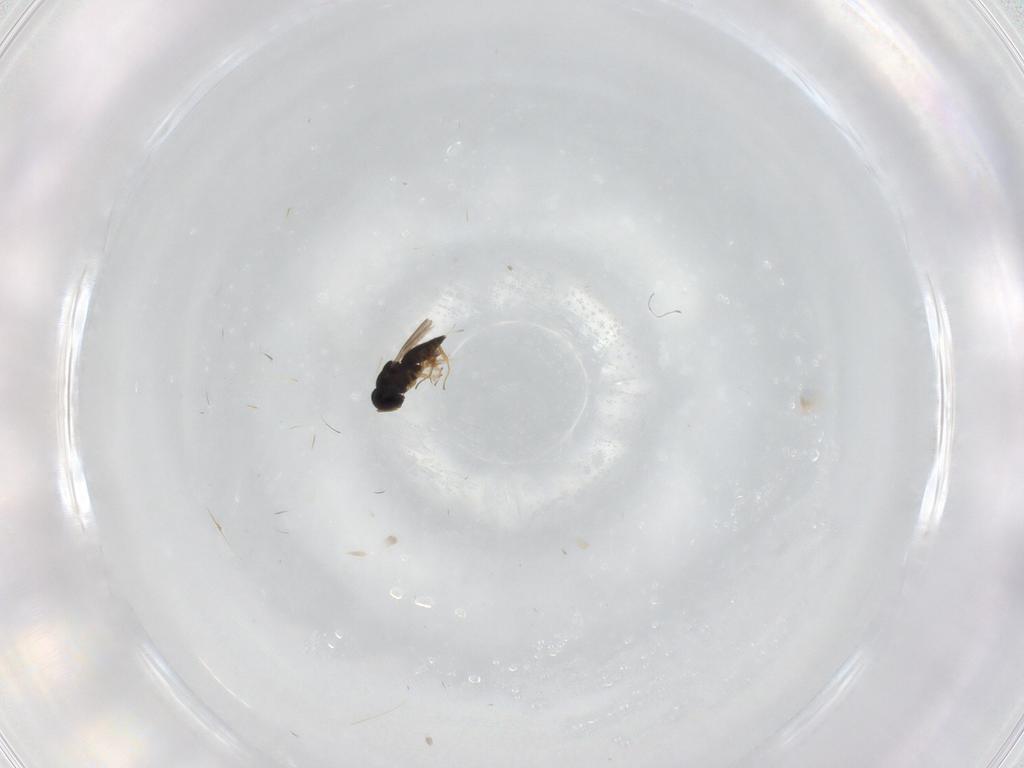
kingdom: Animalia
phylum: Arthropoda
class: Insecta
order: Hymenoptera
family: Scelionidae
